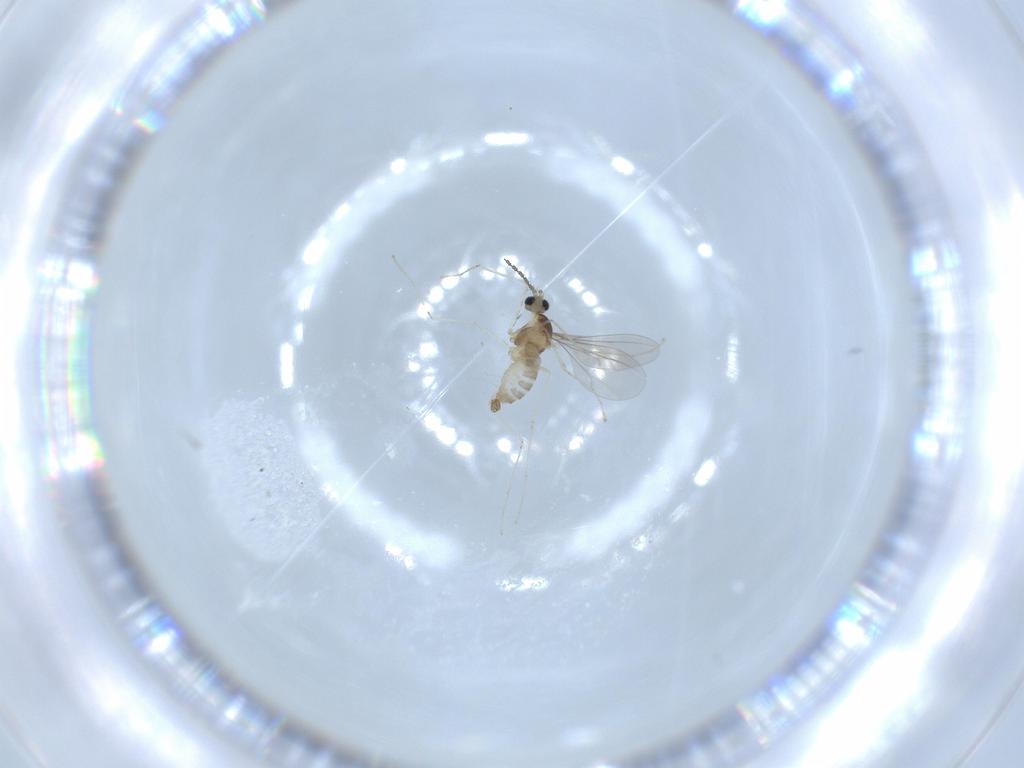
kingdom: Animalia
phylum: Arthropoda
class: Insecta
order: Diptera
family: Cecidomyiidae
